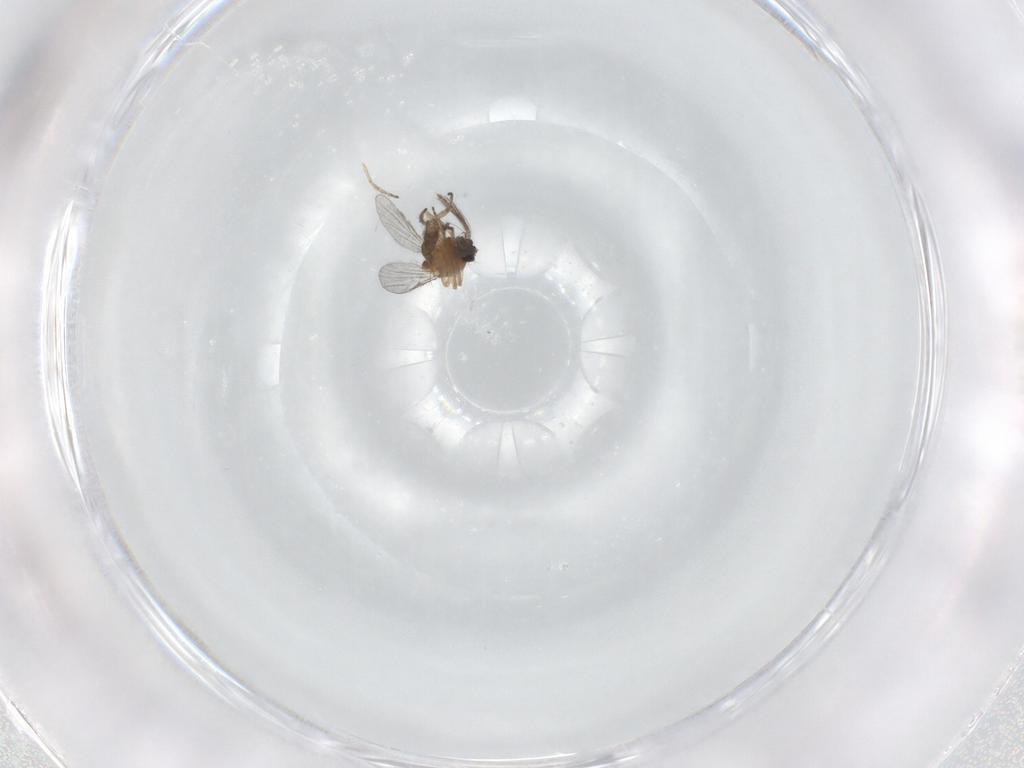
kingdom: Animalia
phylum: Arthropoda
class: Insecta
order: Diptera
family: Ceratopogonidae
